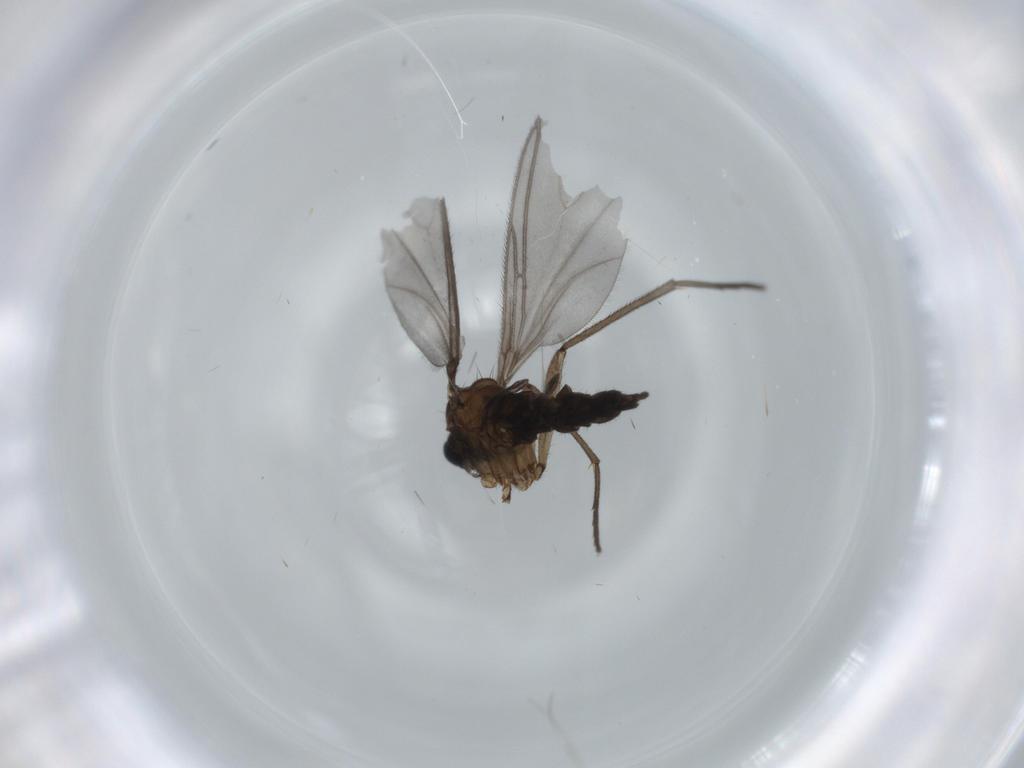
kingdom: Animalia
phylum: Arthropoda
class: Insecta
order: Diptera
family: Sciaridae
